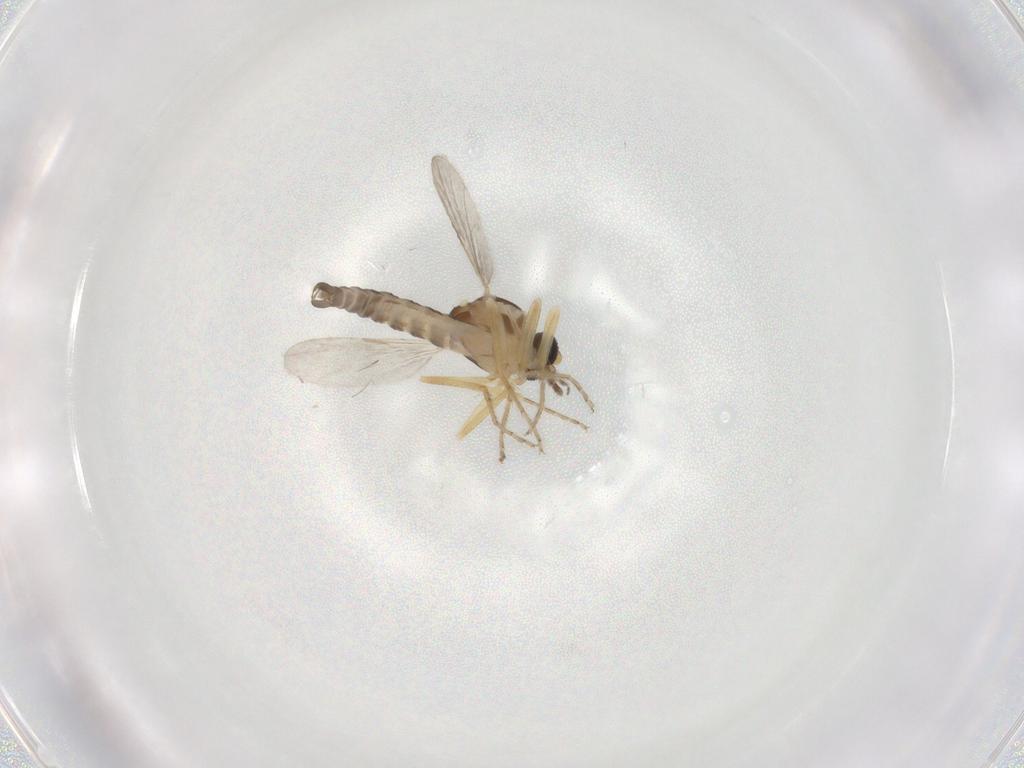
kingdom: Animalia
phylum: Arthropoda
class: Insecta
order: Diptera
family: Ceratopogonidae
